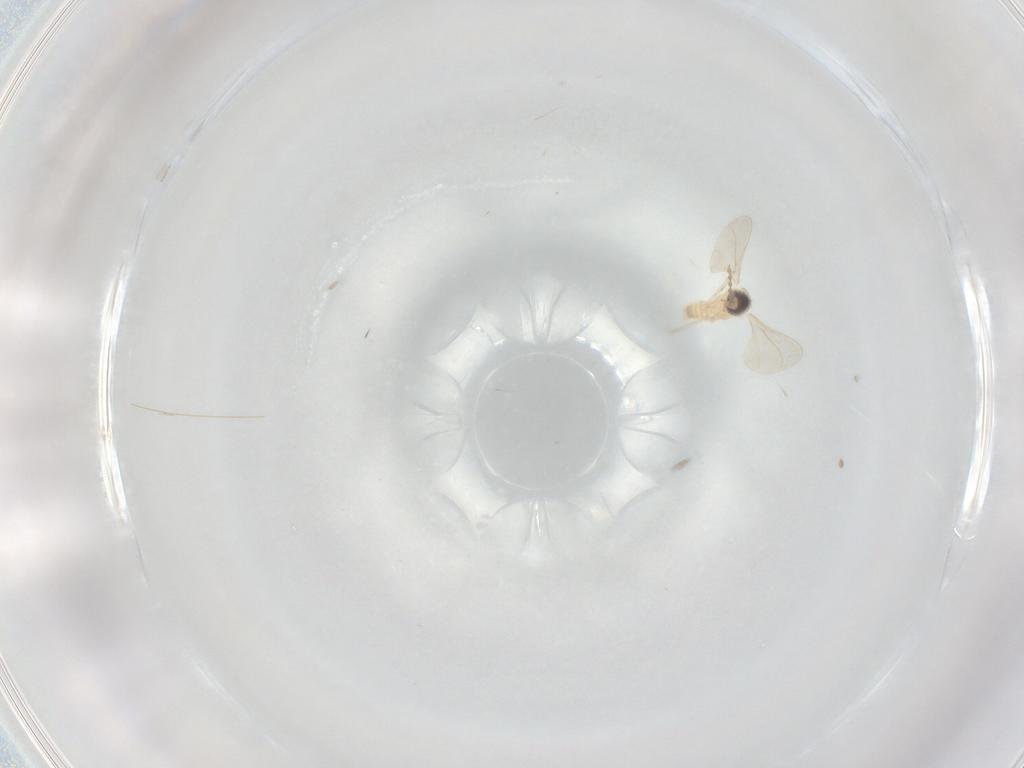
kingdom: Animalia
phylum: Arthropoda
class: Insecta
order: Diptera
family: Cecidomyiidae
